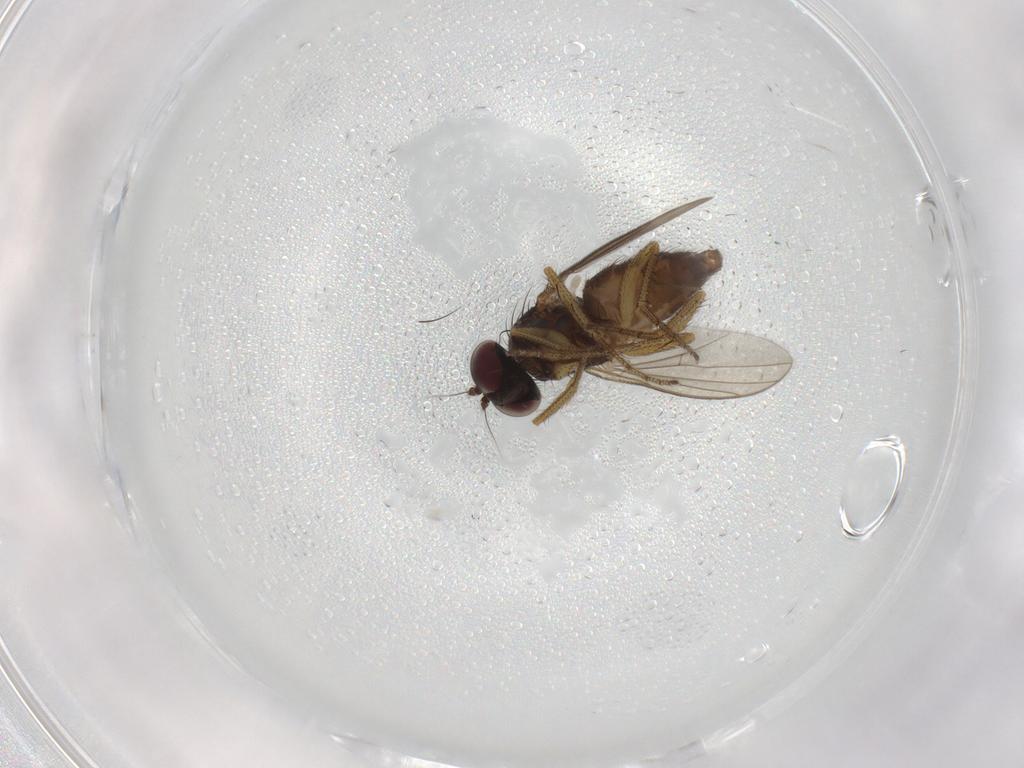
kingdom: Animalia
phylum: Arthropoda
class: Insecta
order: Diptera
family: Dolichopodidae
